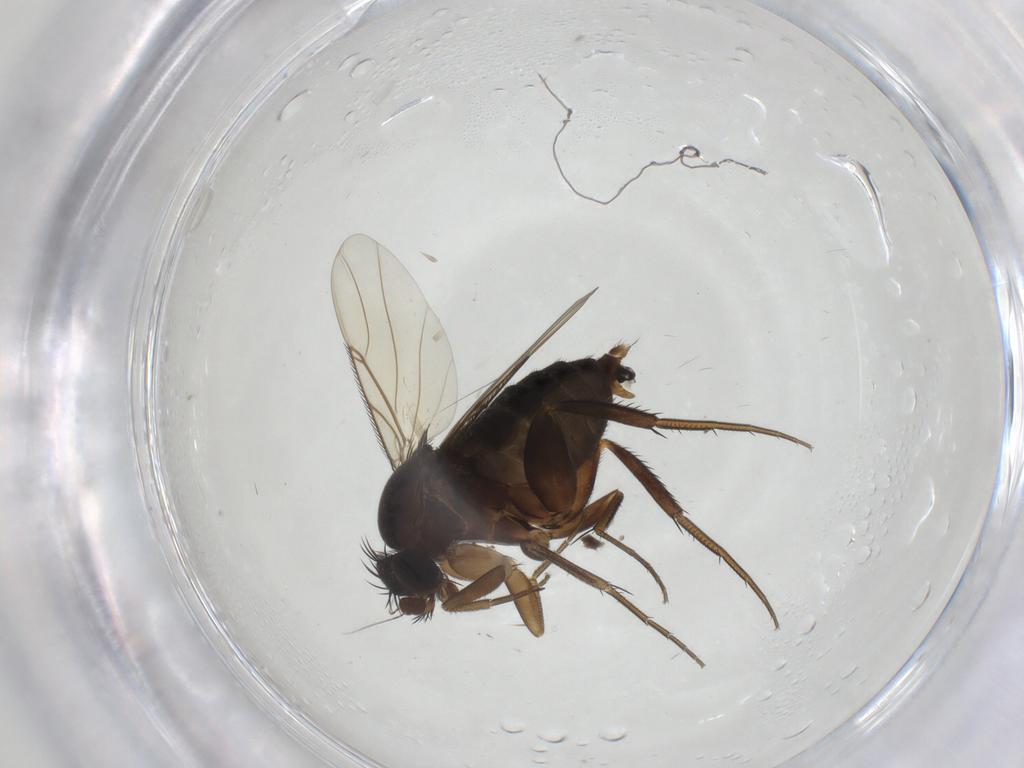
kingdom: Animalia
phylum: Arthropoda
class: Insecta
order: Diptera
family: Phoridae
